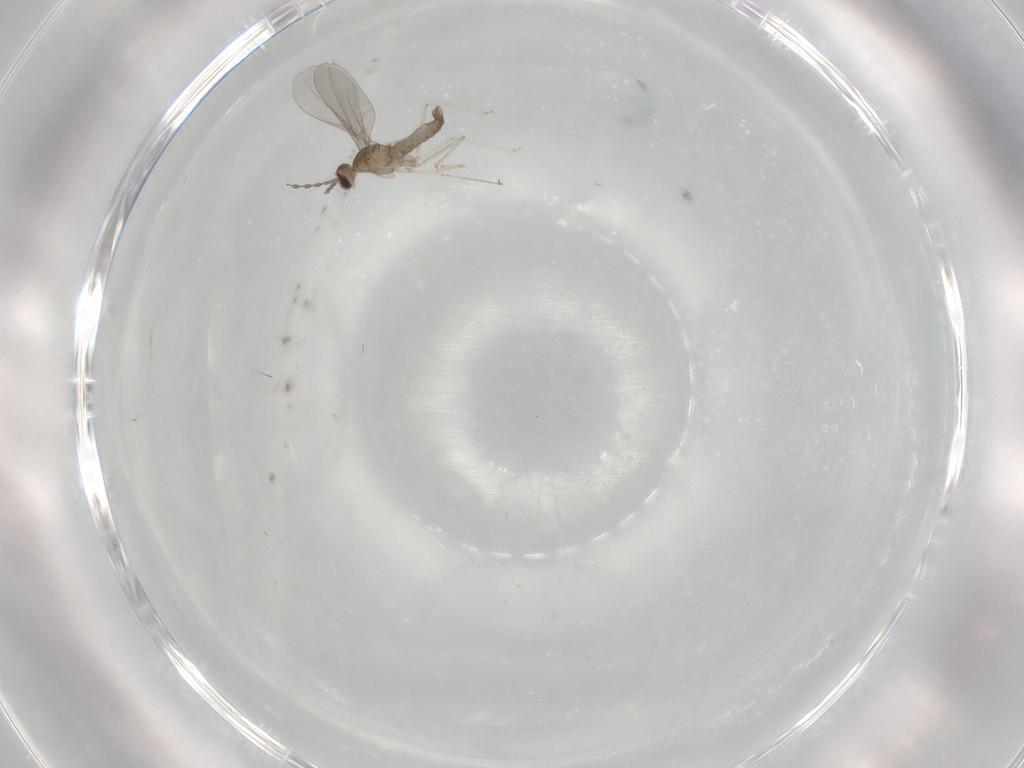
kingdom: Animalia
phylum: Arthropoda
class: Insecta
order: Diptera
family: Cecidomyiidae
